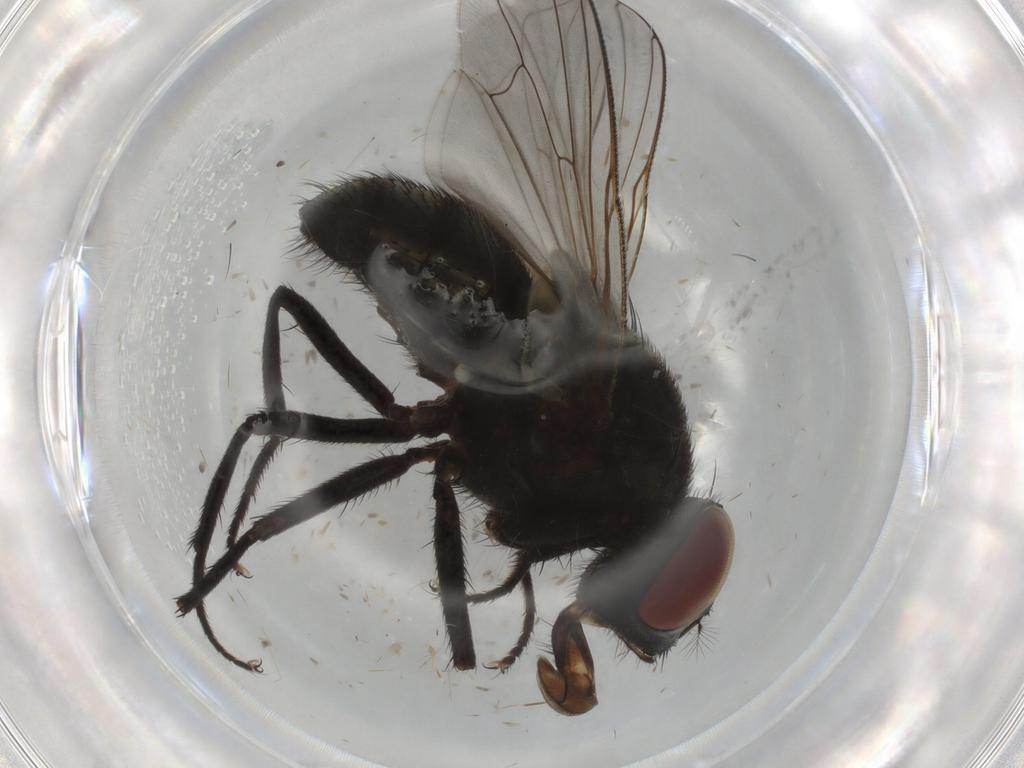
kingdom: Animalia
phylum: Arthropoda
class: Insecta
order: Diptera
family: Muscidae
